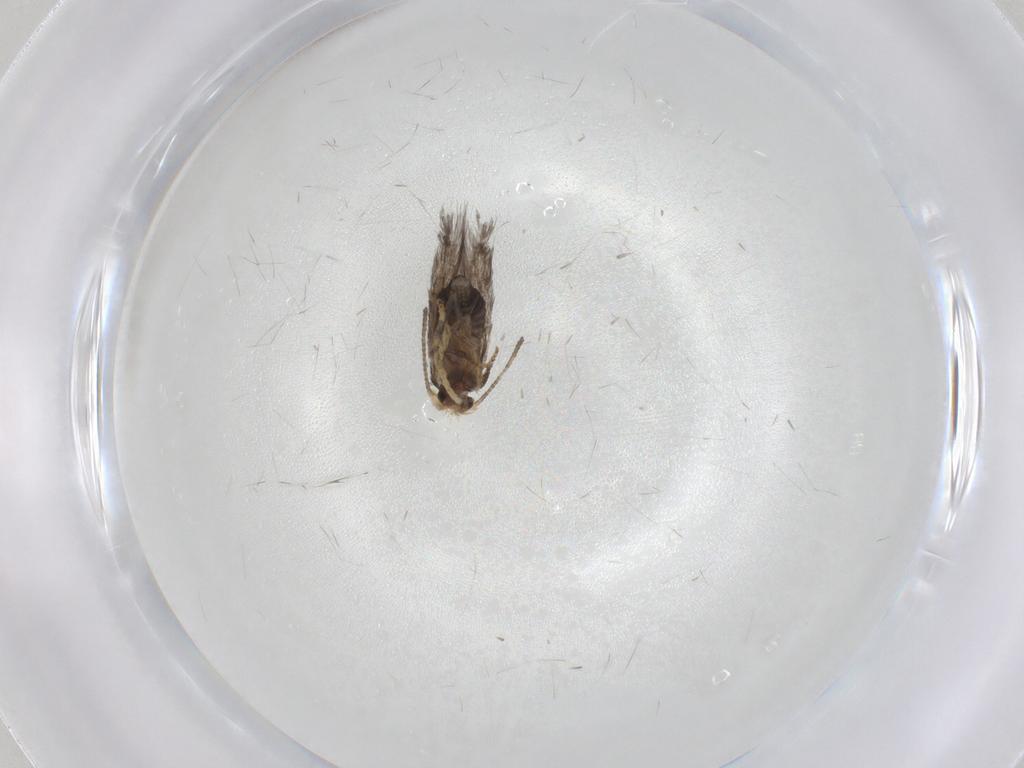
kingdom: Animalia
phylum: Arthropoda
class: Insecta
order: Lepidoptera
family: Nepticulidae
